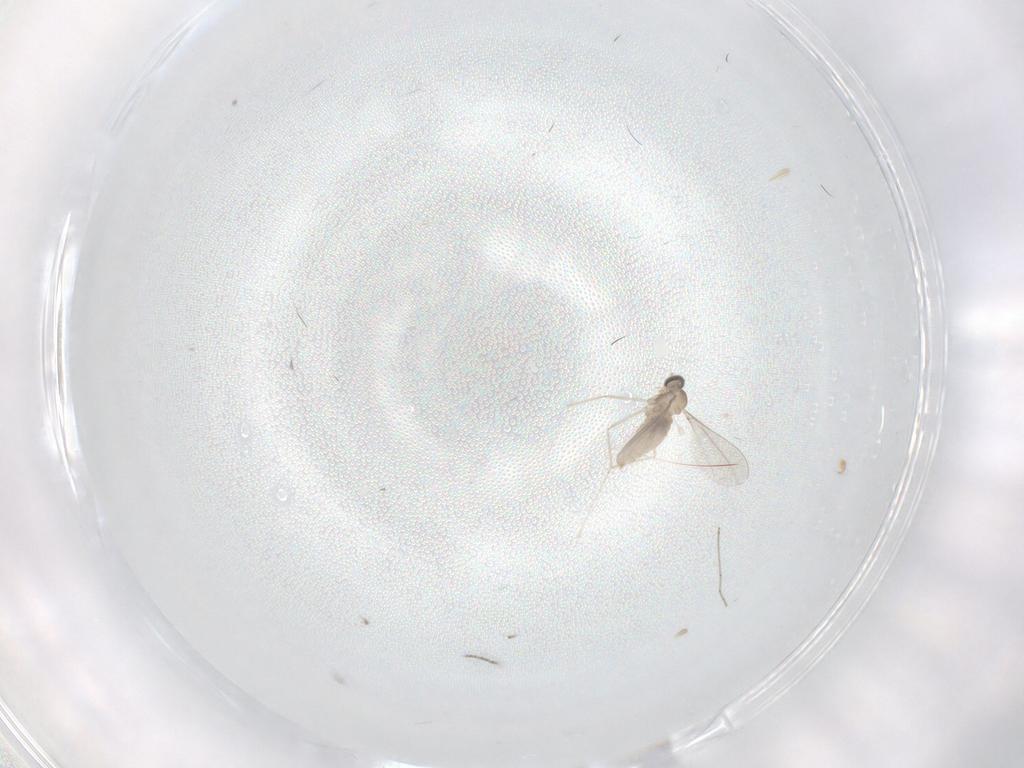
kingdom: Animalia
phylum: Arthropoda
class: Insecta
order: Diptera
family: Cecidomyiidae
